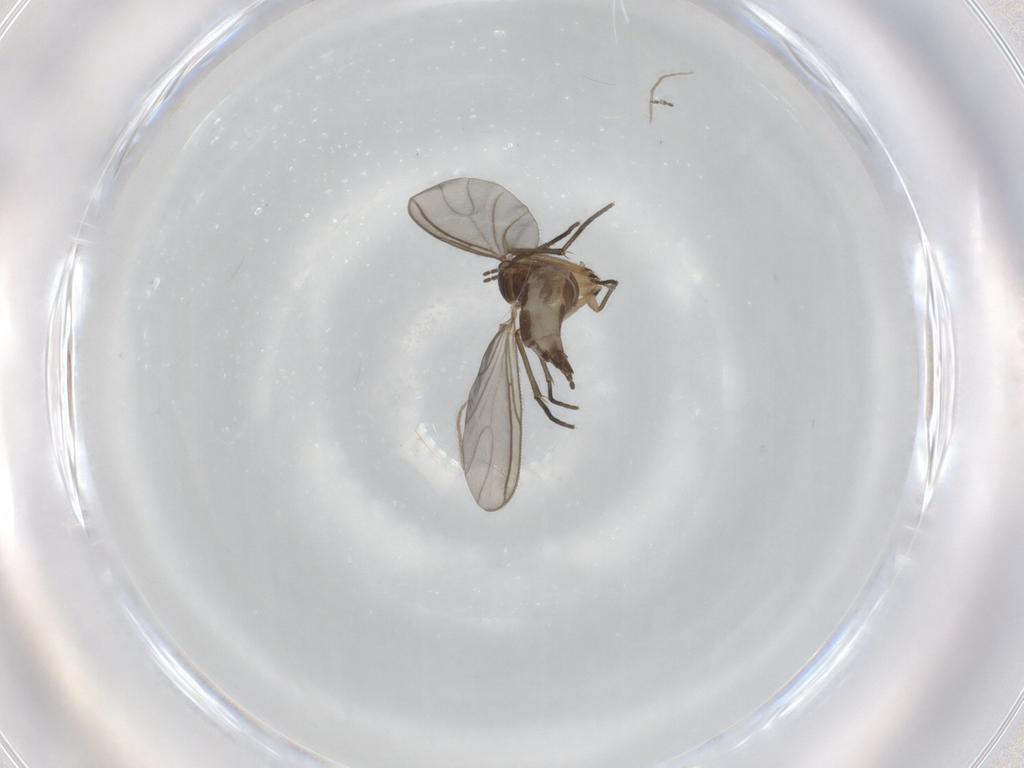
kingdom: Animalia
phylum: Arthropoda
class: Insecta
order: Diptera
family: Sciaridae
